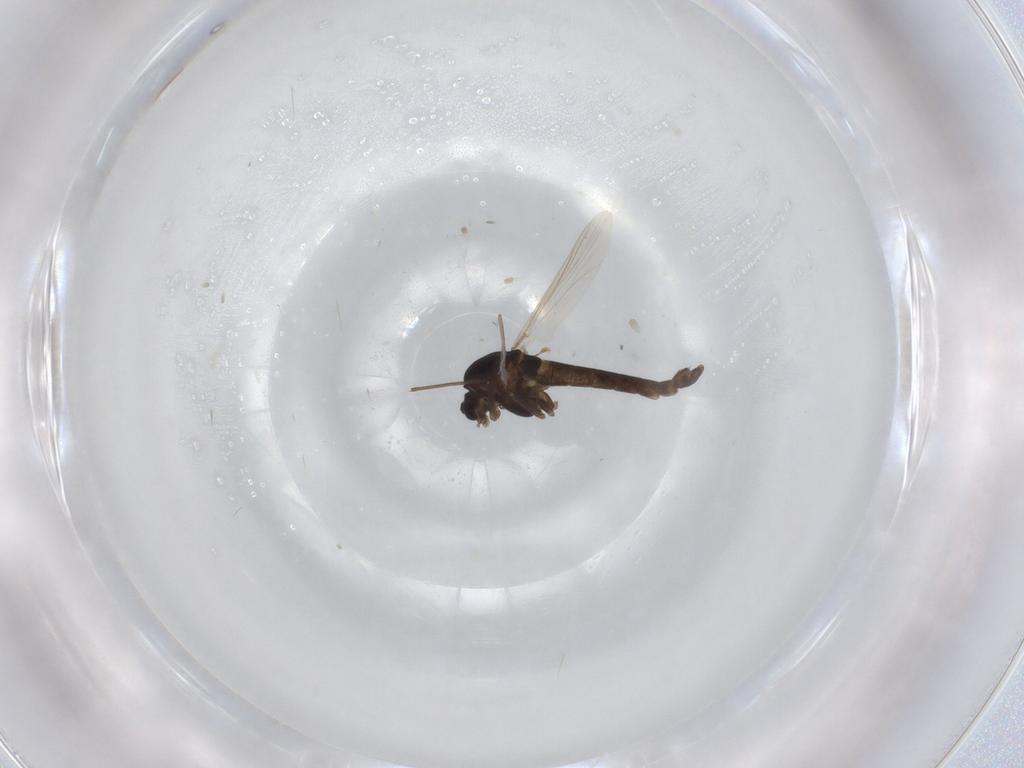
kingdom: Animalia
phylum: Arthropoda
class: Insecta
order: Diptera
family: Chironomidae
